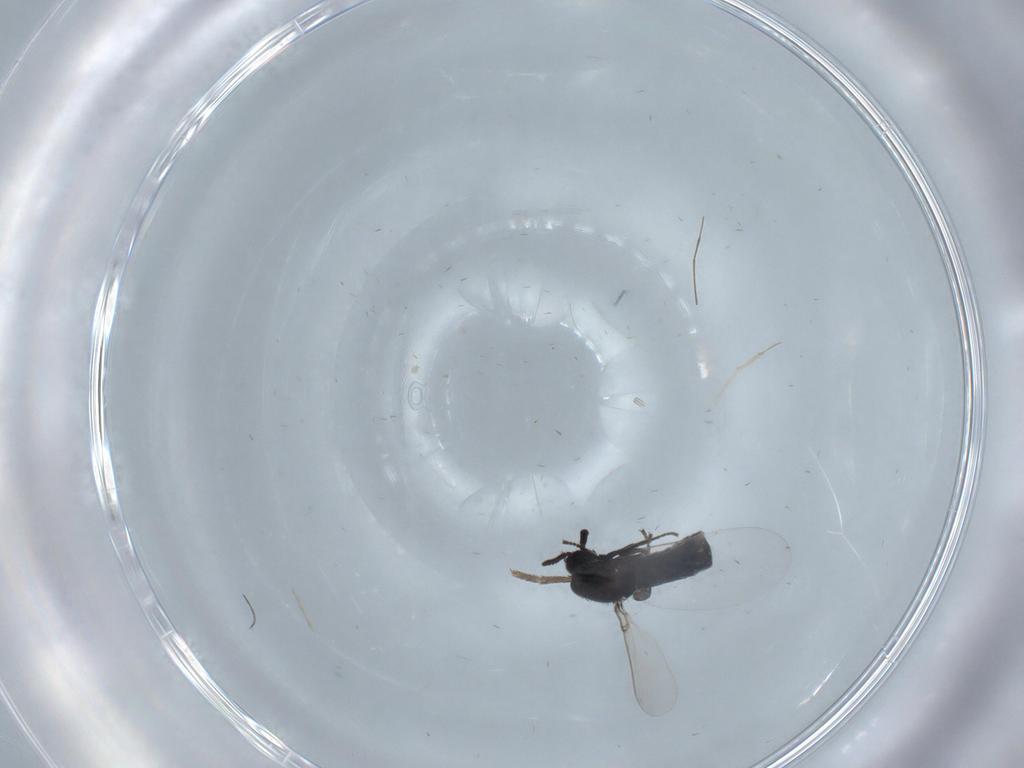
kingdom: Animalia
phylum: Arthropoda
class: Insecta
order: Diptera
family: Scatopsidae
